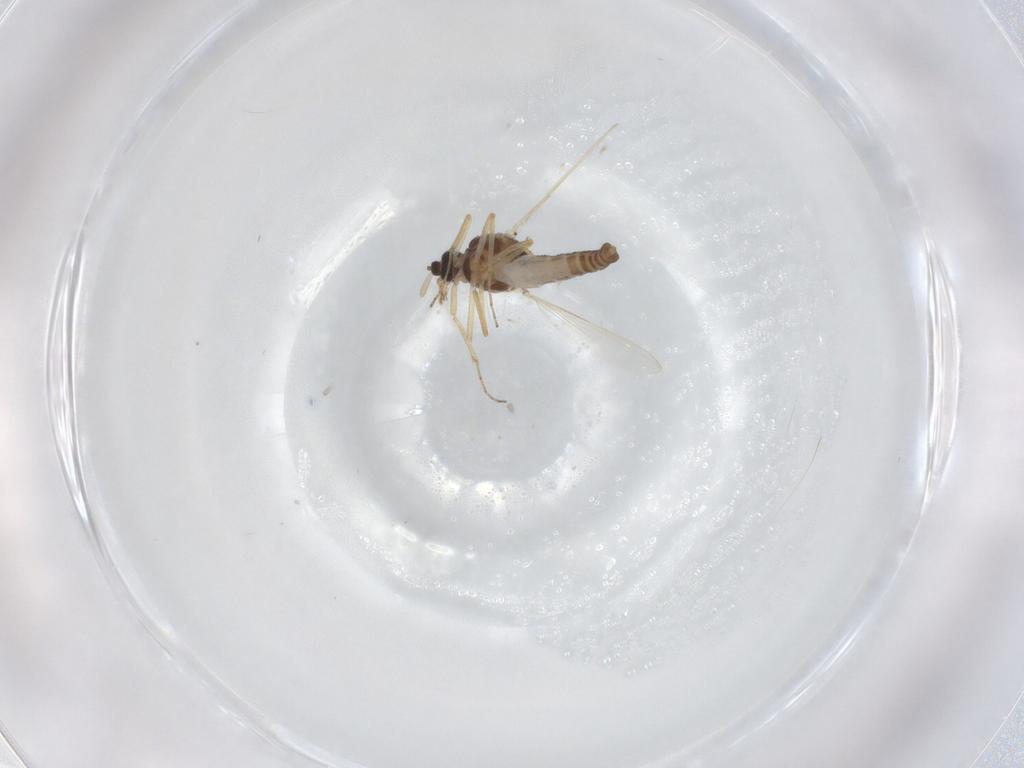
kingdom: Animalia
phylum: Arthropoda
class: Insecta
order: Diptera
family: Ceratopogonidae
